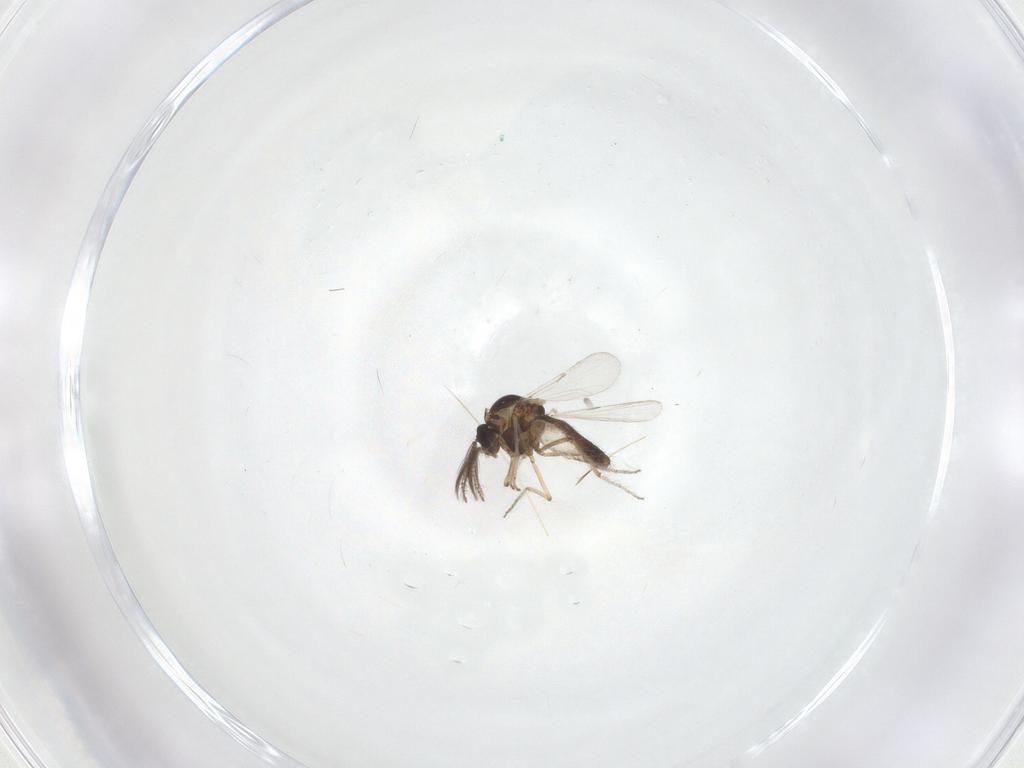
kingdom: Animalia
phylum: Arthropoda
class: Insecta
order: Diptera
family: Ceratopogonidae
